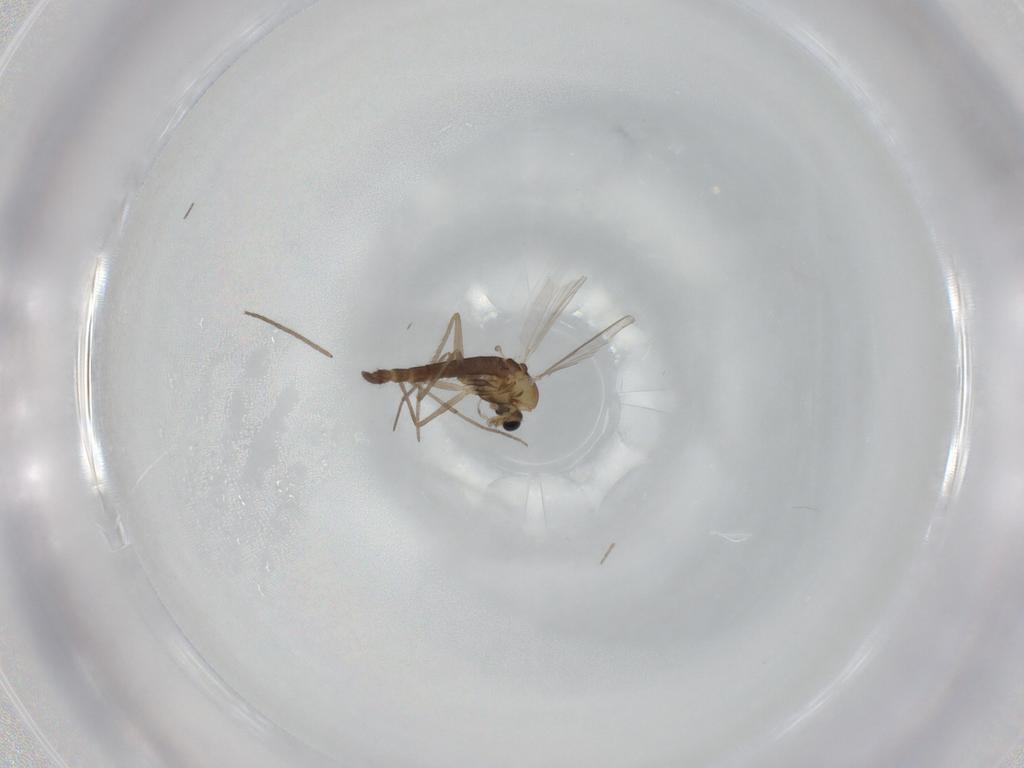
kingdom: Animalia
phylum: Arthropoda
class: Insecta
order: Diptera
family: Chironomidae
